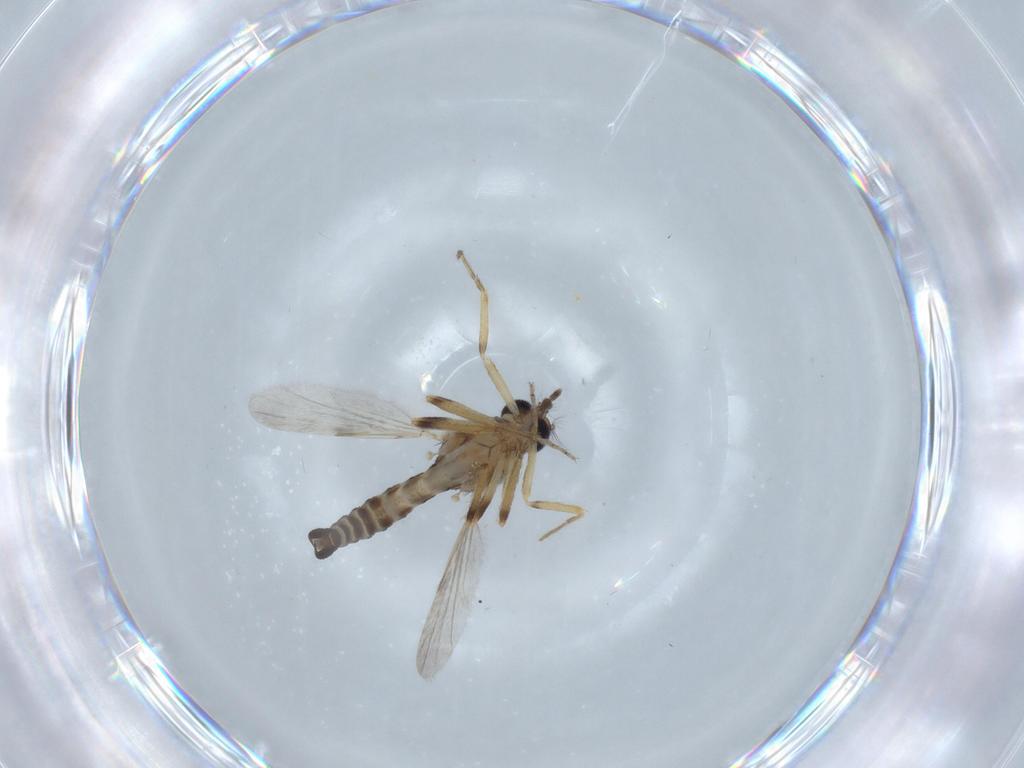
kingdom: Animalia
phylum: Arthropoda
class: Insecta
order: Diptera
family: Ceratopogonidae
